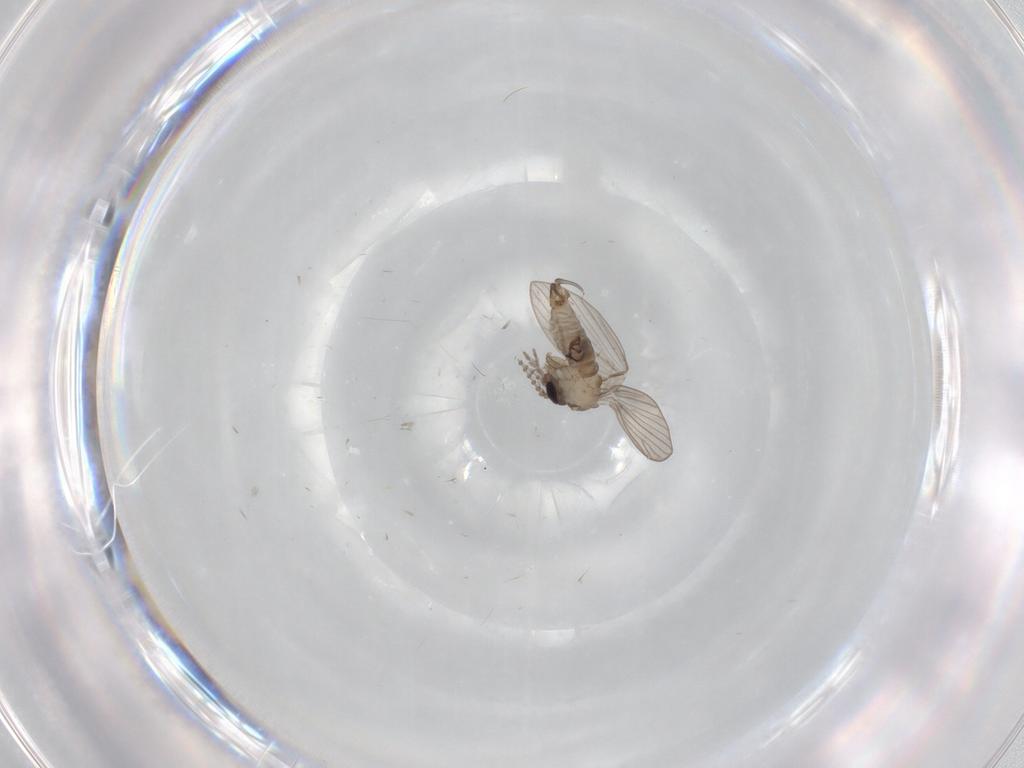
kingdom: Animalia
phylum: Arthropoda
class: Insecta
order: Diptera
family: Psychodidae
